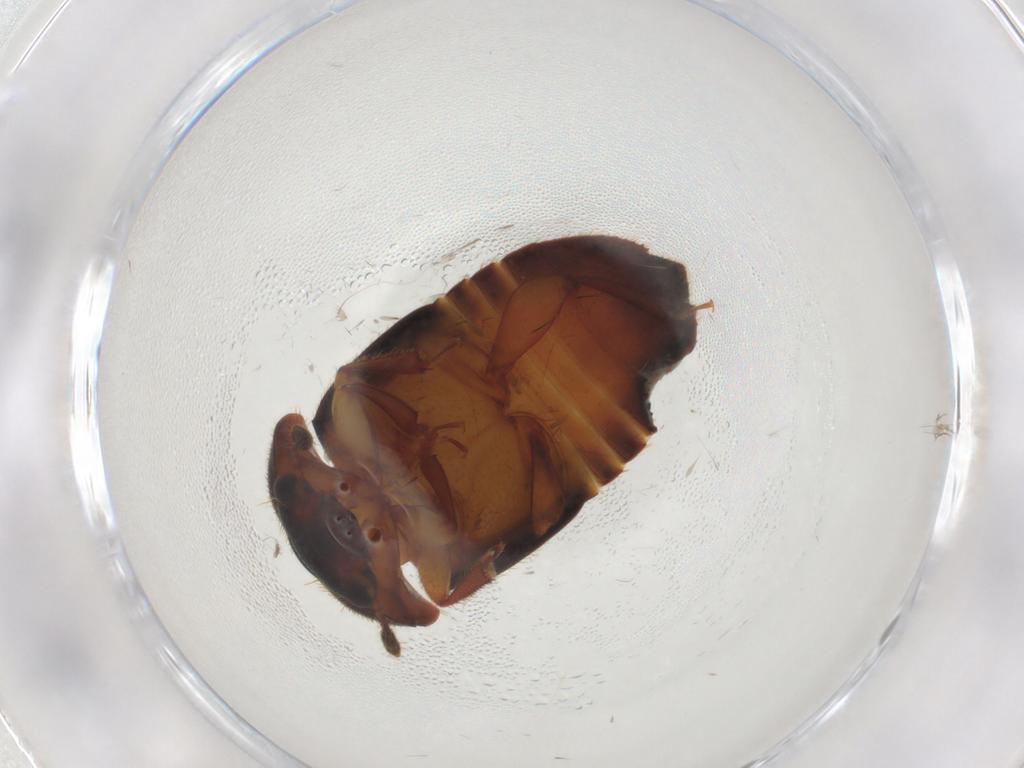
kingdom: Animalia
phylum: Arthropoda
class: Insecta
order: Coleoptera
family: Nitidulidae
